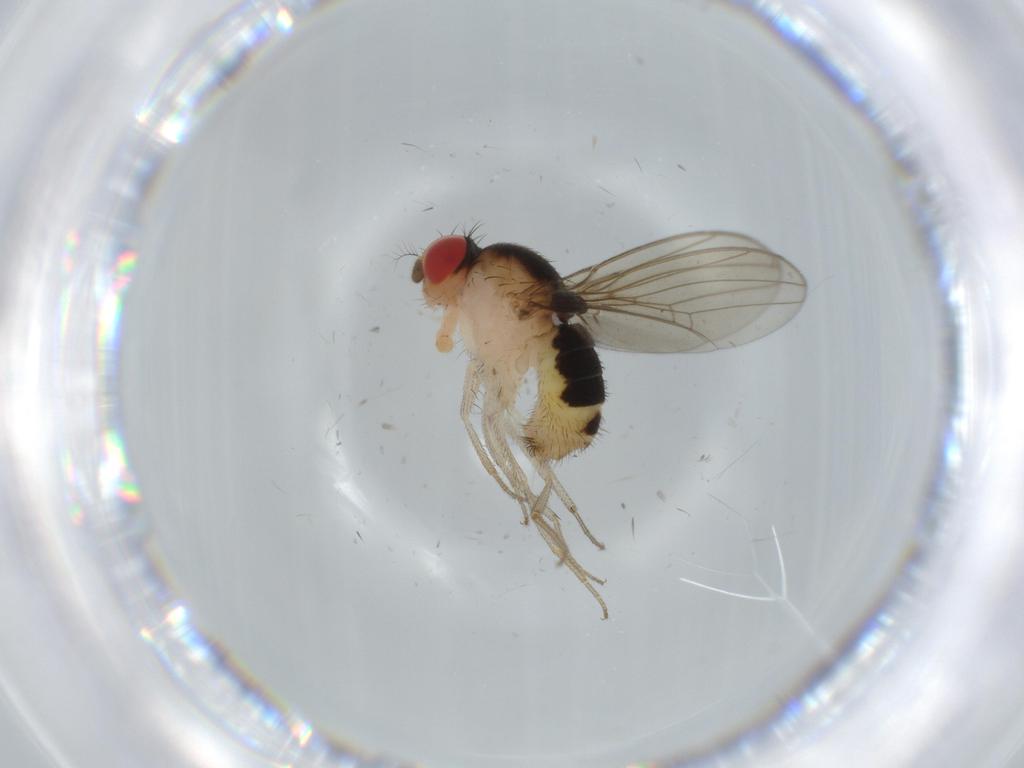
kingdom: Animalia
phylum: Arthropoda
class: Insecta
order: Diptera
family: Drosophilidae
